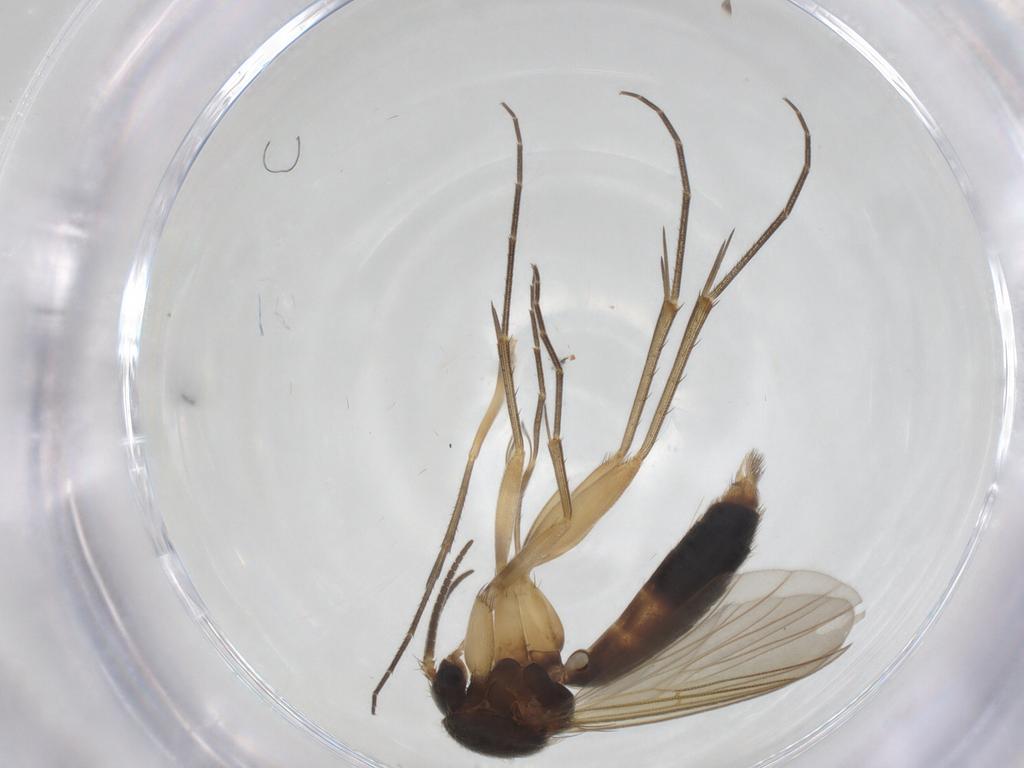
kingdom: Animalia
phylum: Arthropoda
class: Insecta
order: Diptera
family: Mycetophilidae
